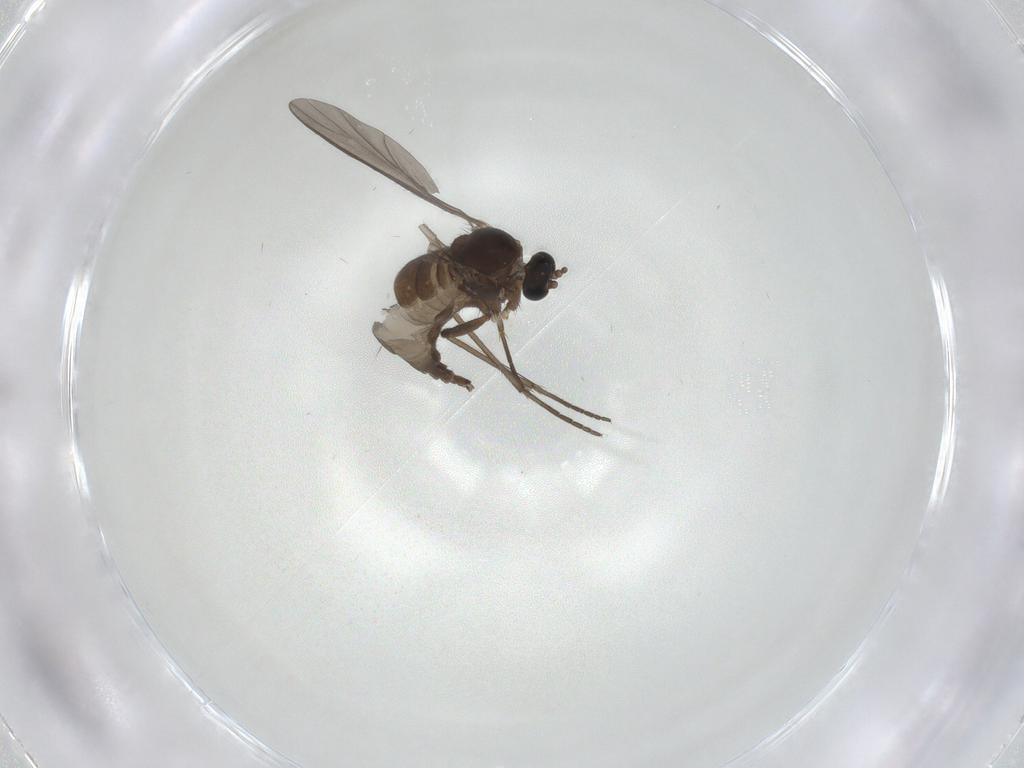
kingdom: Animalia
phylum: Arthropoda
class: Insecta
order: Diptera
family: Sciaridae
